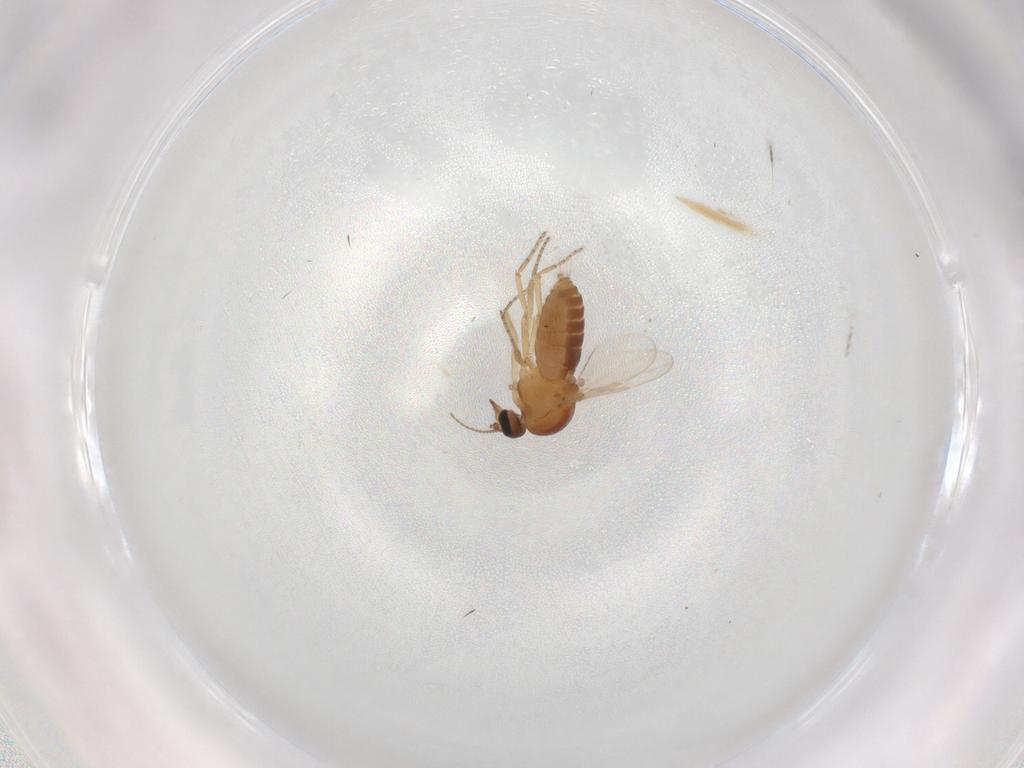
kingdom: Animalia
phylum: Arthropoda
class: Insecta
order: Diptera
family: Ceratopogonidae
